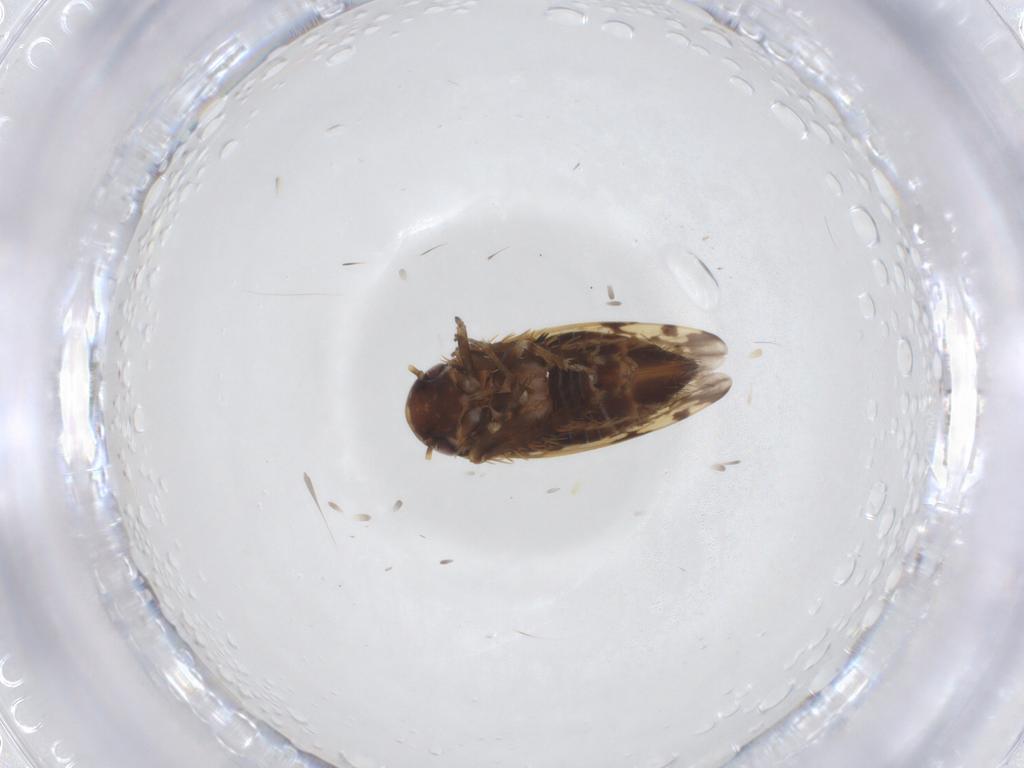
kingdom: Animalia
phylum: Arthropoda
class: Insecta
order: Hemiptera
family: Cicadellidae
